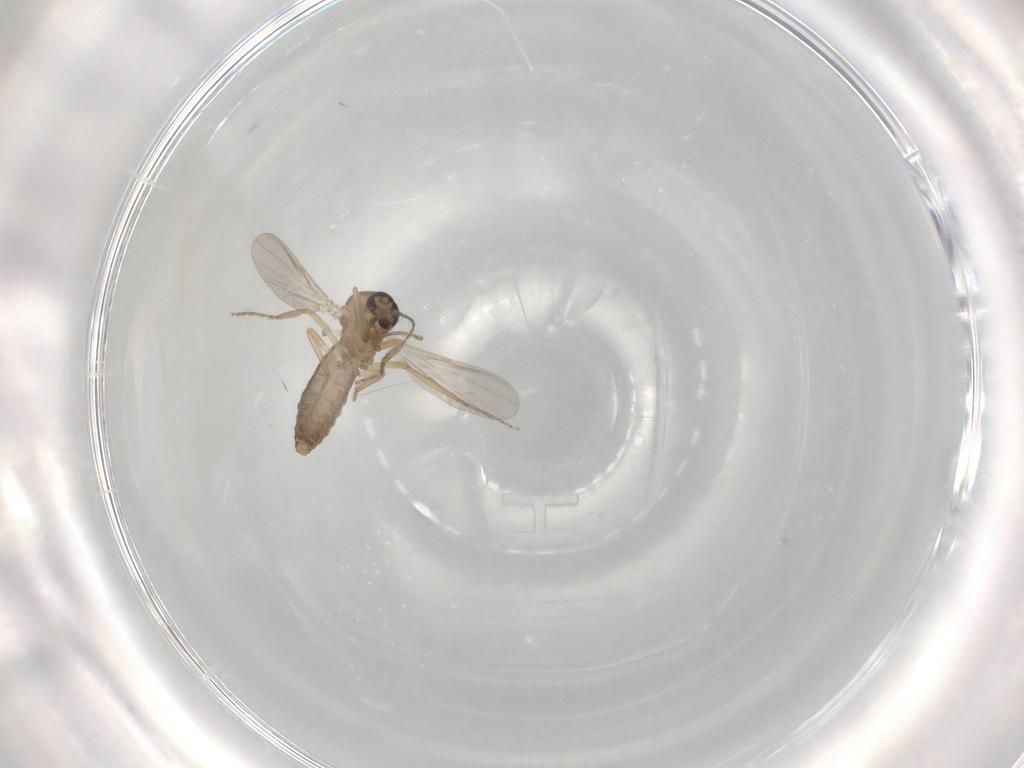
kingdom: Animalia
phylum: Arthropoda
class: Insecta
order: Diptera
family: Ceratopogonidae
